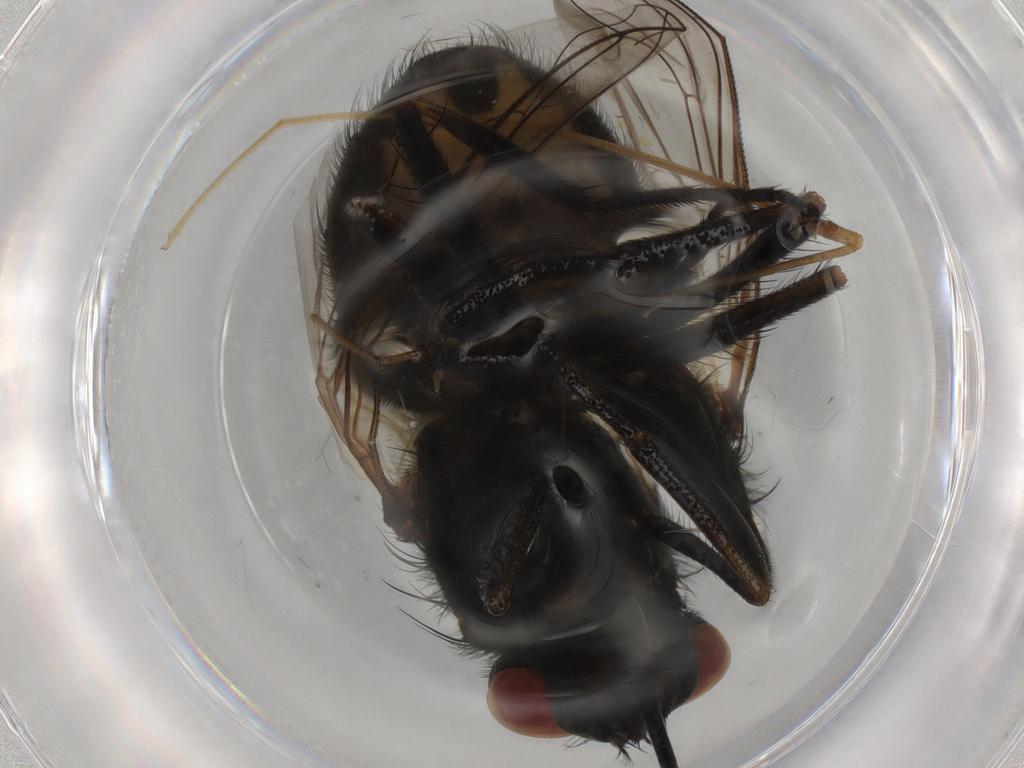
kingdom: Animalia
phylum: Arthropoda
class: Insecta
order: Diptera
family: Muscidae
